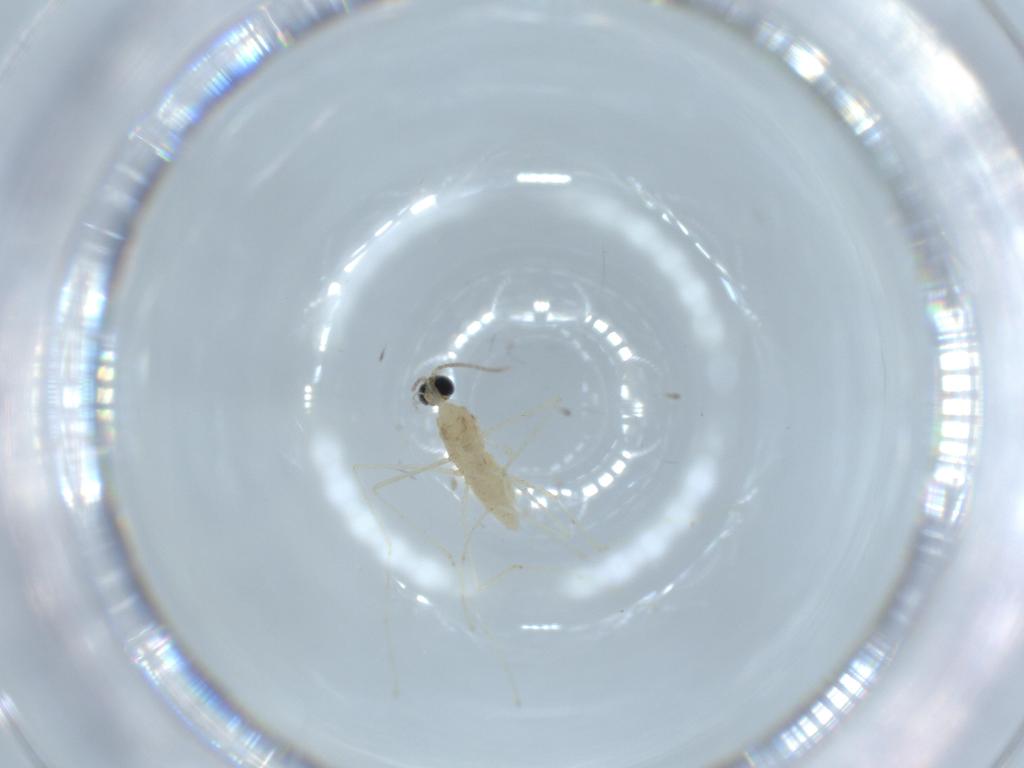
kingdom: Animalia
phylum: Arthropoda
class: Insecta
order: Diptera
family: Cecidomyiidae
